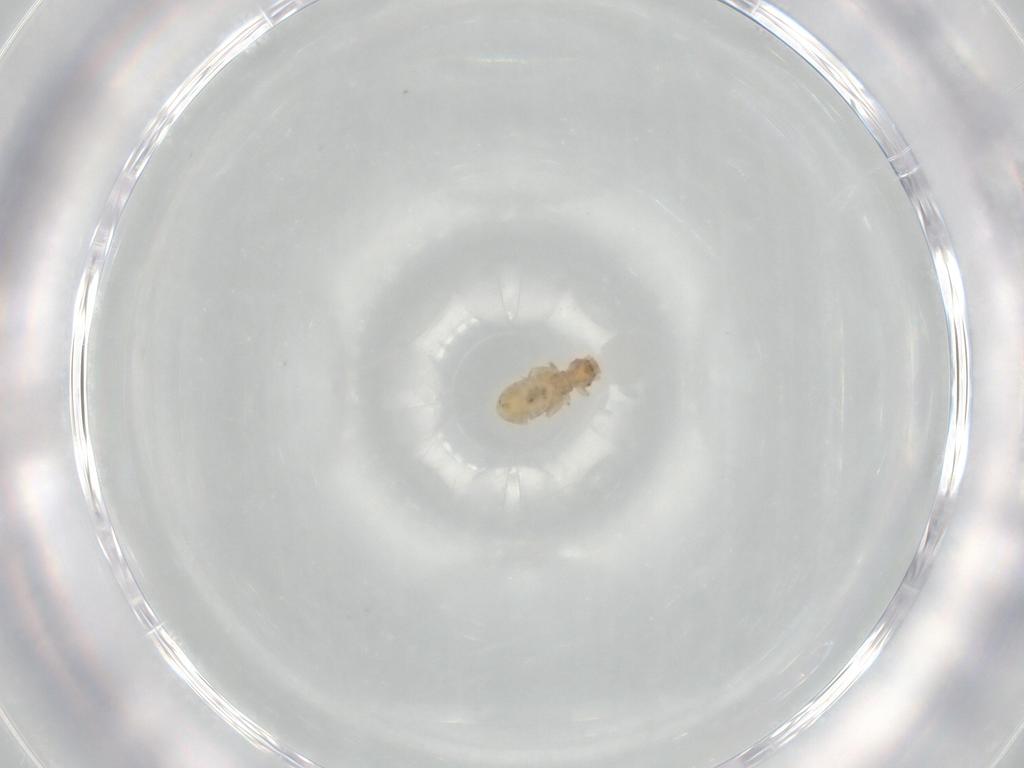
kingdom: Animalia
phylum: Arthropoda
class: Insecta
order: Psocodea
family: Liposcelididae
